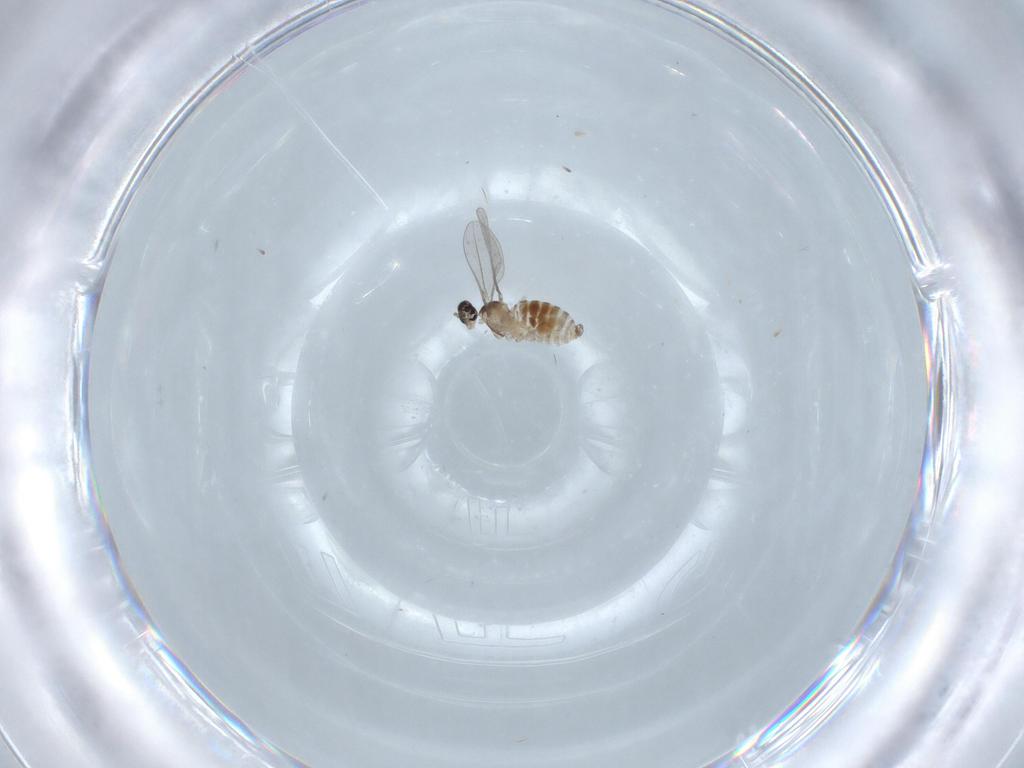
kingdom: Animalia
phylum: Arthropoda
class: Insecta
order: Diptera
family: Cecidomyiidae
